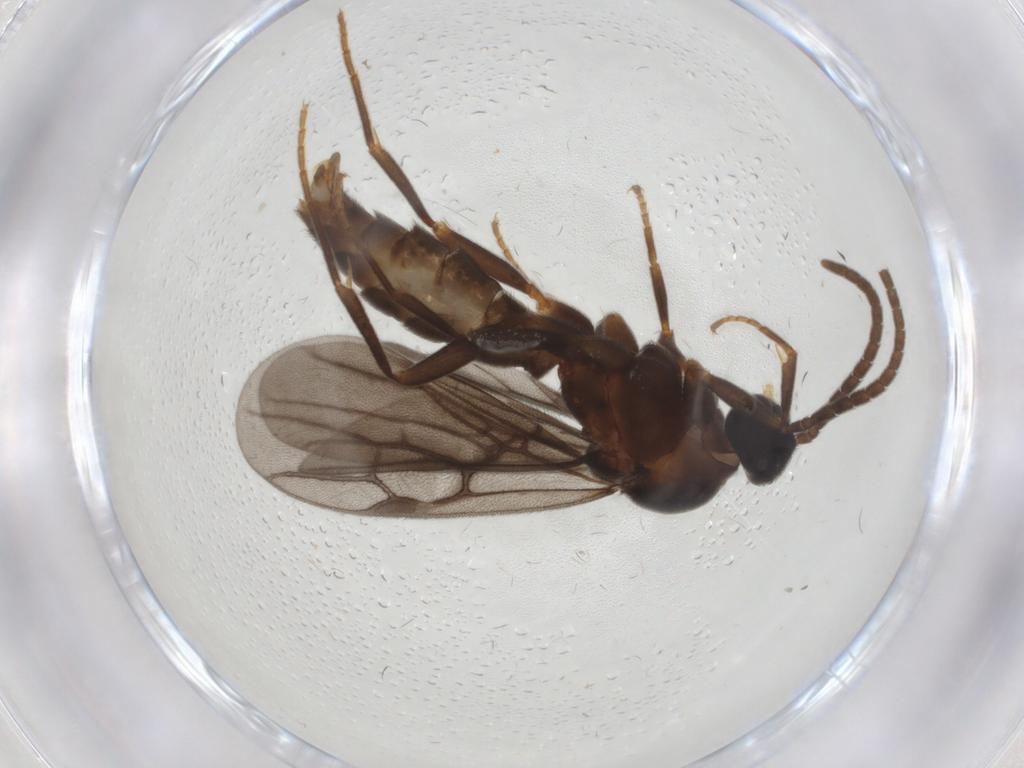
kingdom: Animalia
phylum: Arthropoda
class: Insecta
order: Hymenoptera
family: Formicidae
